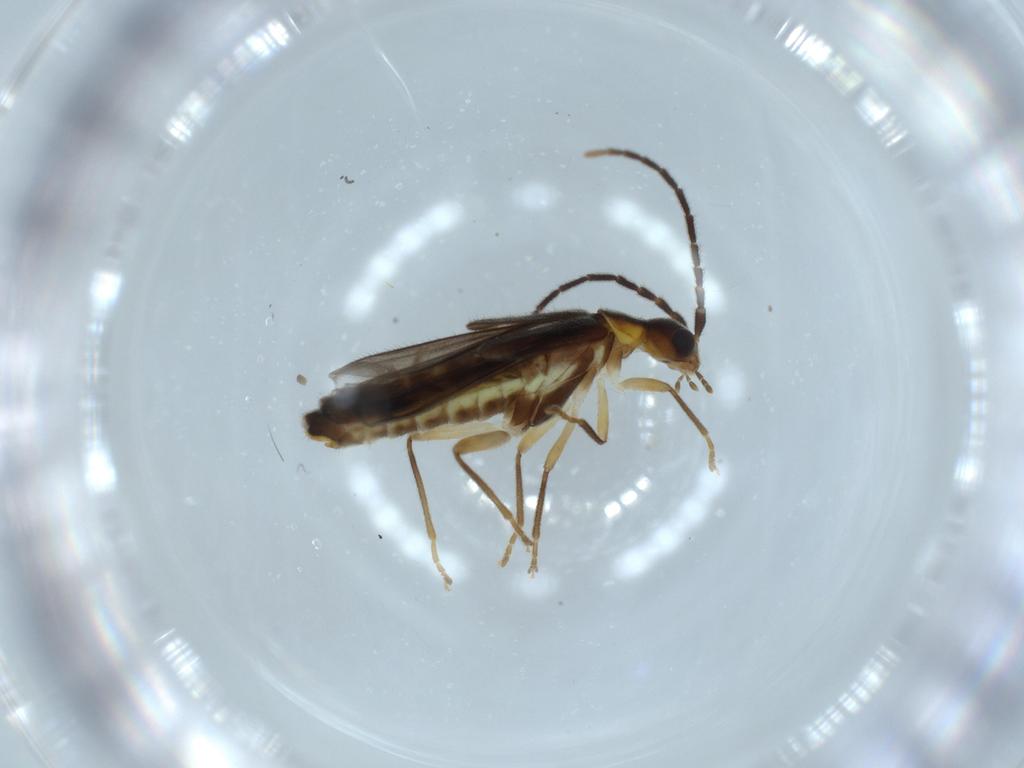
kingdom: Animalia
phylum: Arthropoda
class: Insecta
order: Coleoptera
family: Cantharidae
